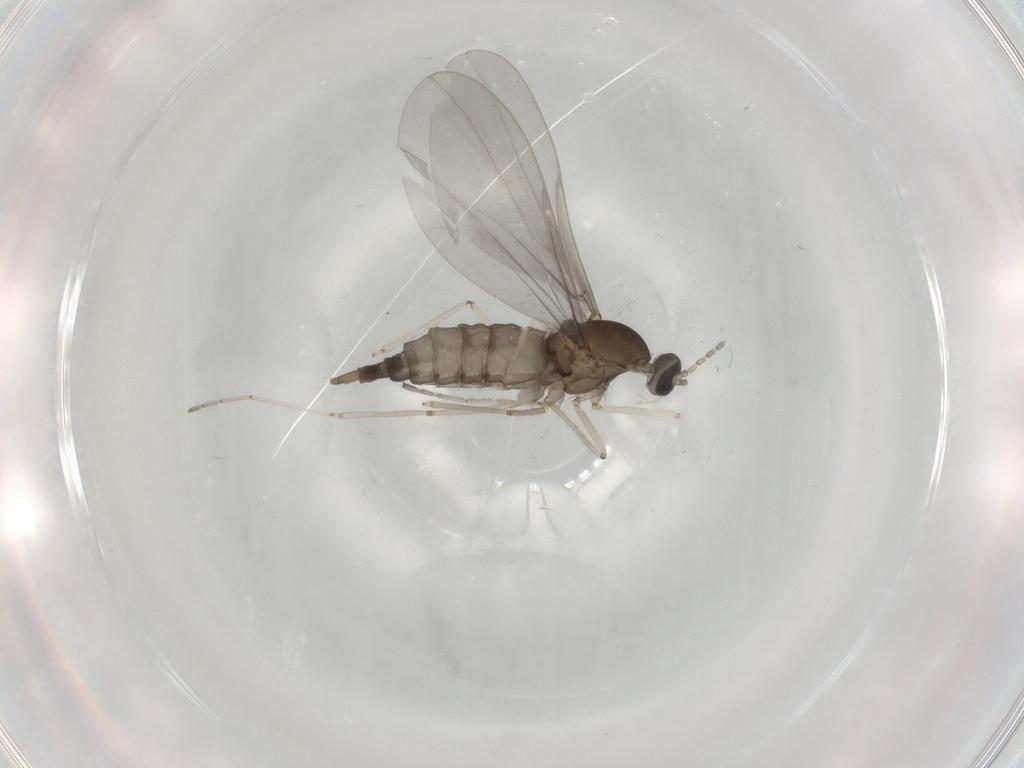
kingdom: Animalia
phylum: Arthropoda
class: Insecta
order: Diptera
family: Cecidomyiidae
